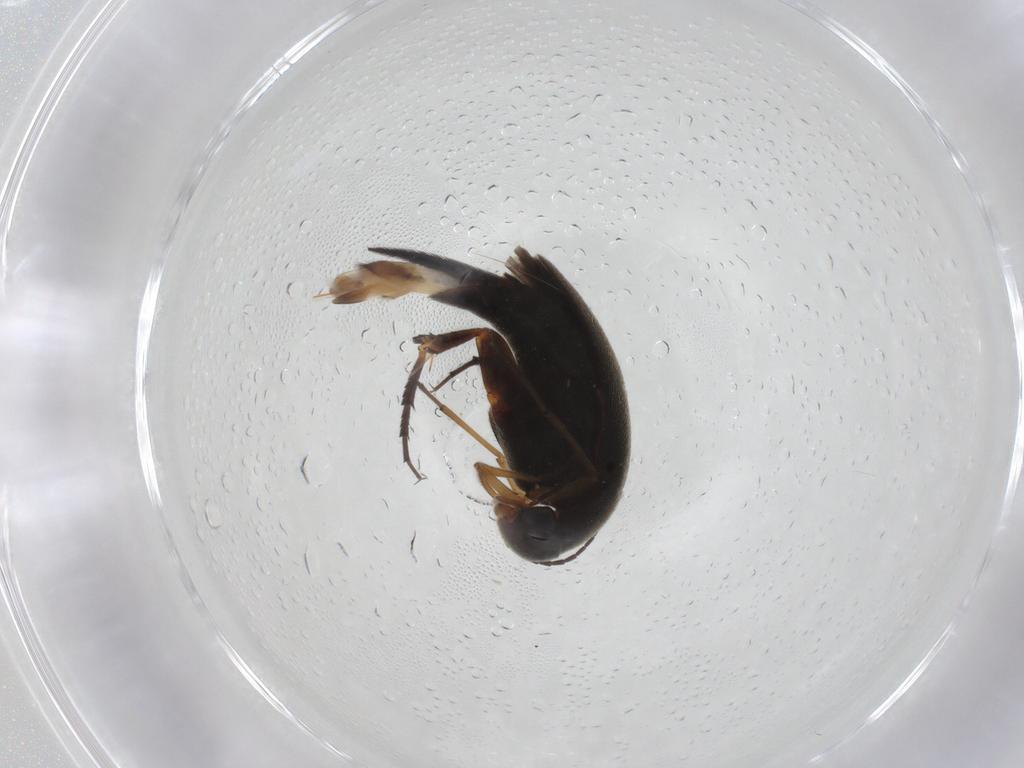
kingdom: Animalia
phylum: Arthropoda
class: Insecta
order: Coleoptera
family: Mordellidae
